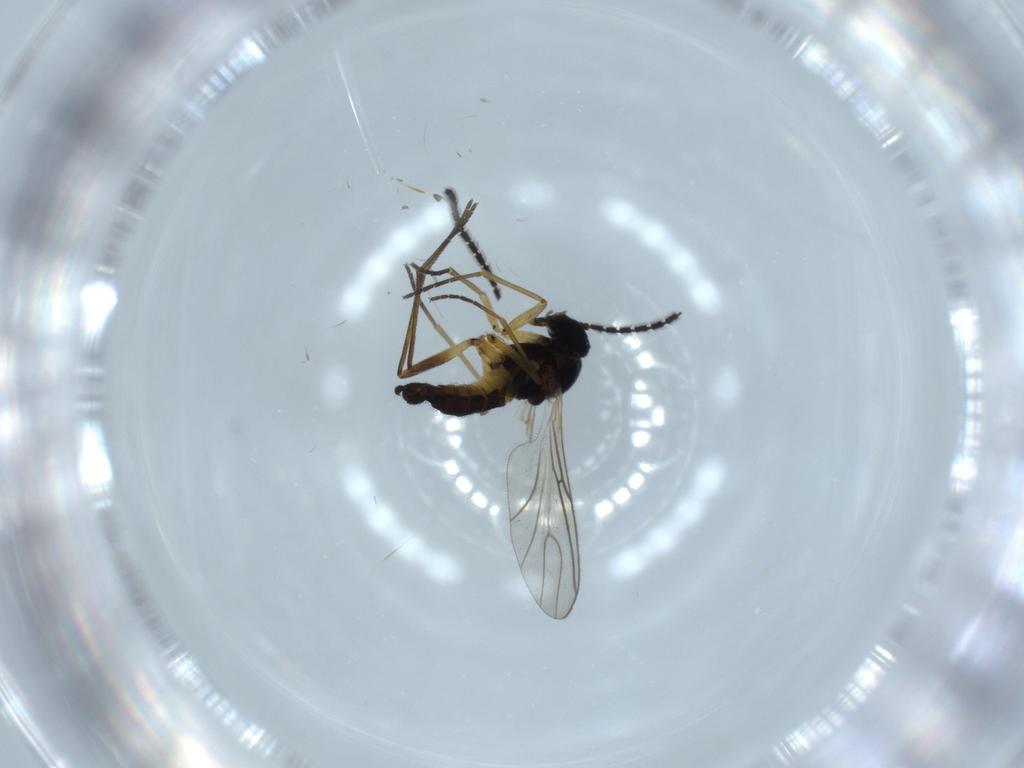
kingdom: Animalia
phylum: Arthropoda
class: Insecta
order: Diptera
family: Sciaridae
